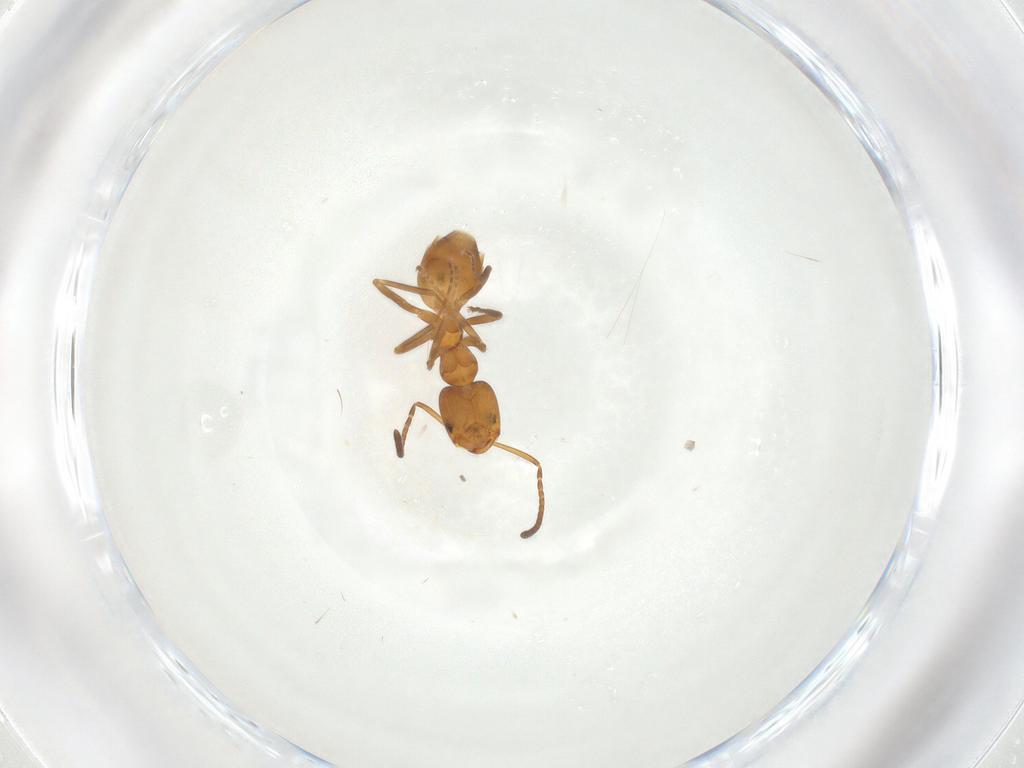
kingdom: Animalia
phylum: Arthropoda
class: Insecta
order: Hymenoptera
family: Formicidae
